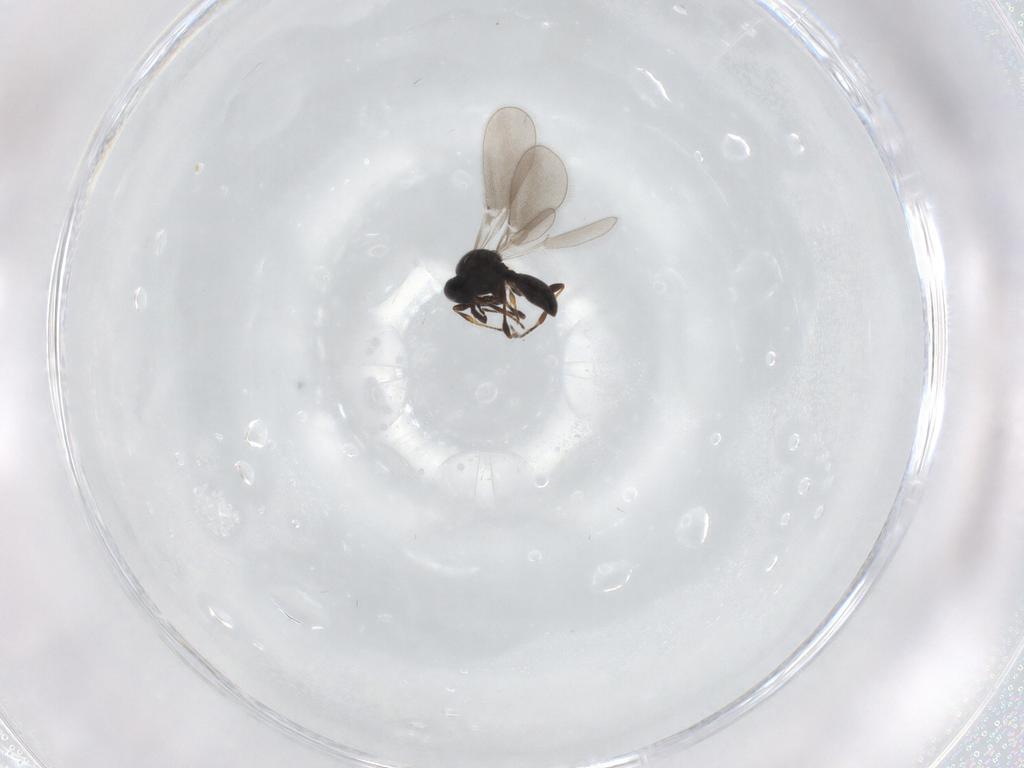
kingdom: Animalia
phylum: Arthropoda
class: Insecta
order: Hymenoptera
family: Platygastridae
